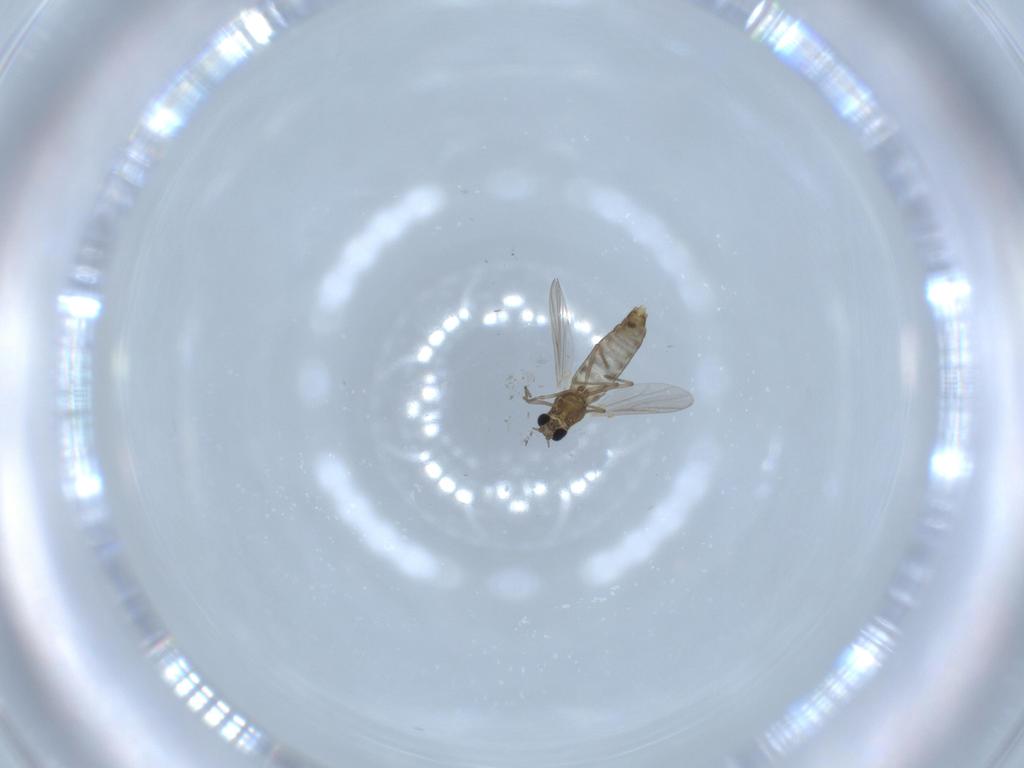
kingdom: Animalia
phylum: Arthropoda
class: Insecta
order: Diptera
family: Chironomidae
